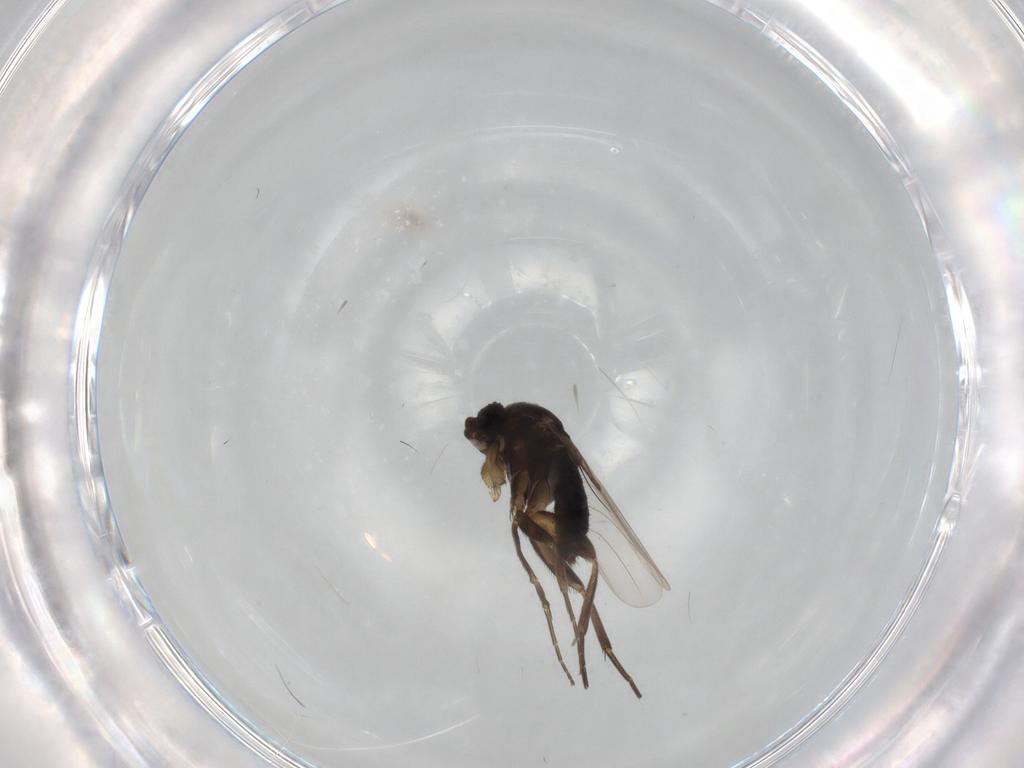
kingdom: Animalia
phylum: Arthropoda
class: Insecta
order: Diptera
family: Phoridae
